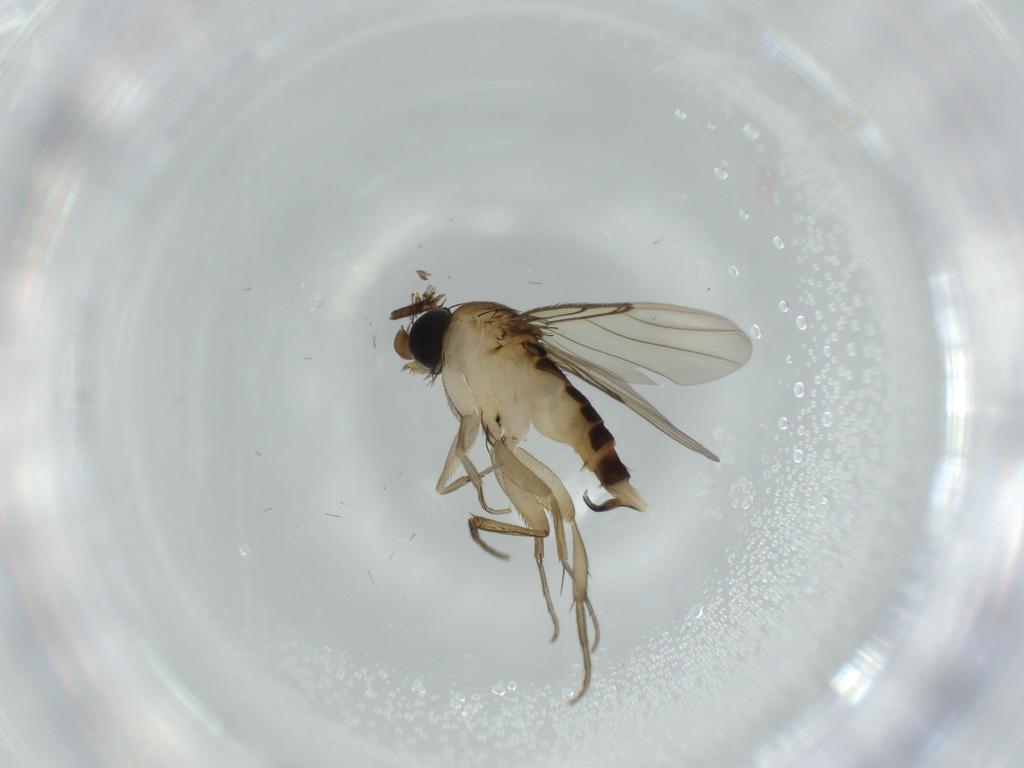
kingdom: Animalia
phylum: Arthropoda
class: Insecta
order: Diptera
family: Phoridae
